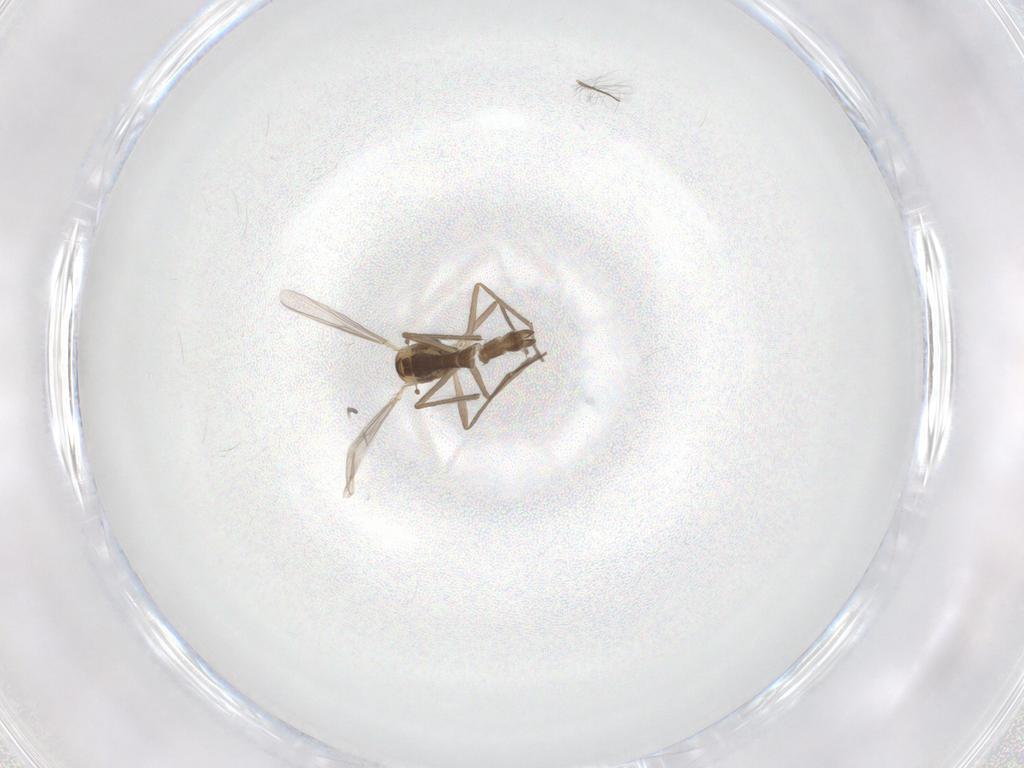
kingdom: Animalia
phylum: Arthropoda
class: Insecta
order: Diptera
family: Chironomidae
